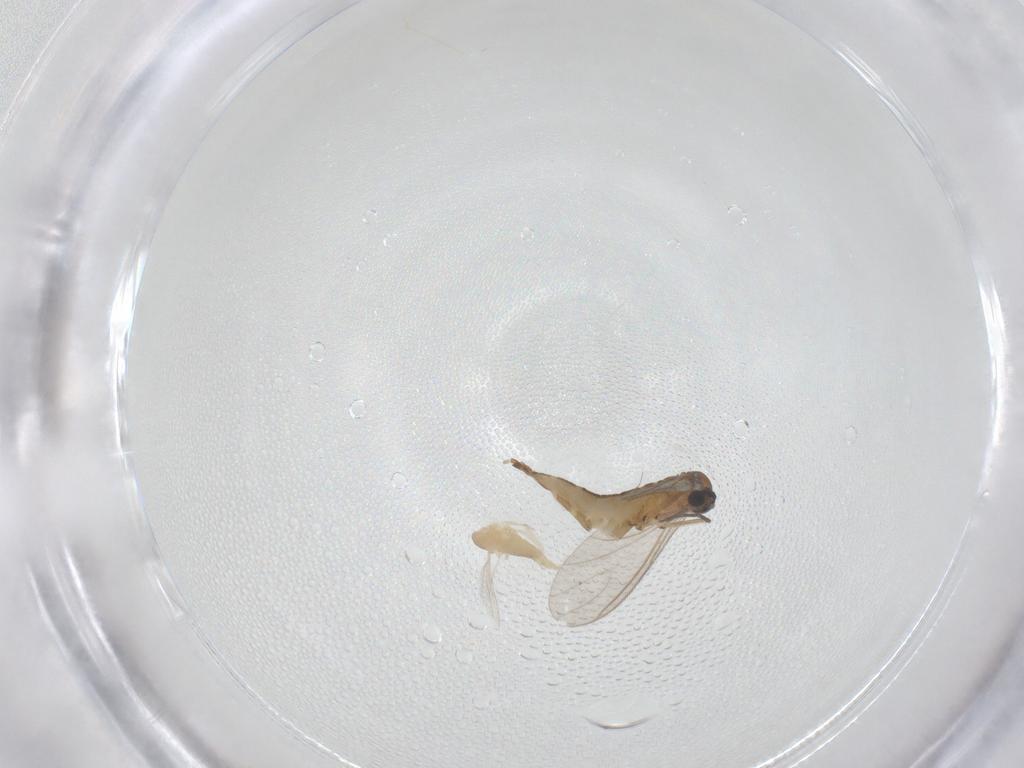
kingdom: Animalia
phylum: Arthropoda
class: Insecta
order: Diptera
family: Sciaridae
